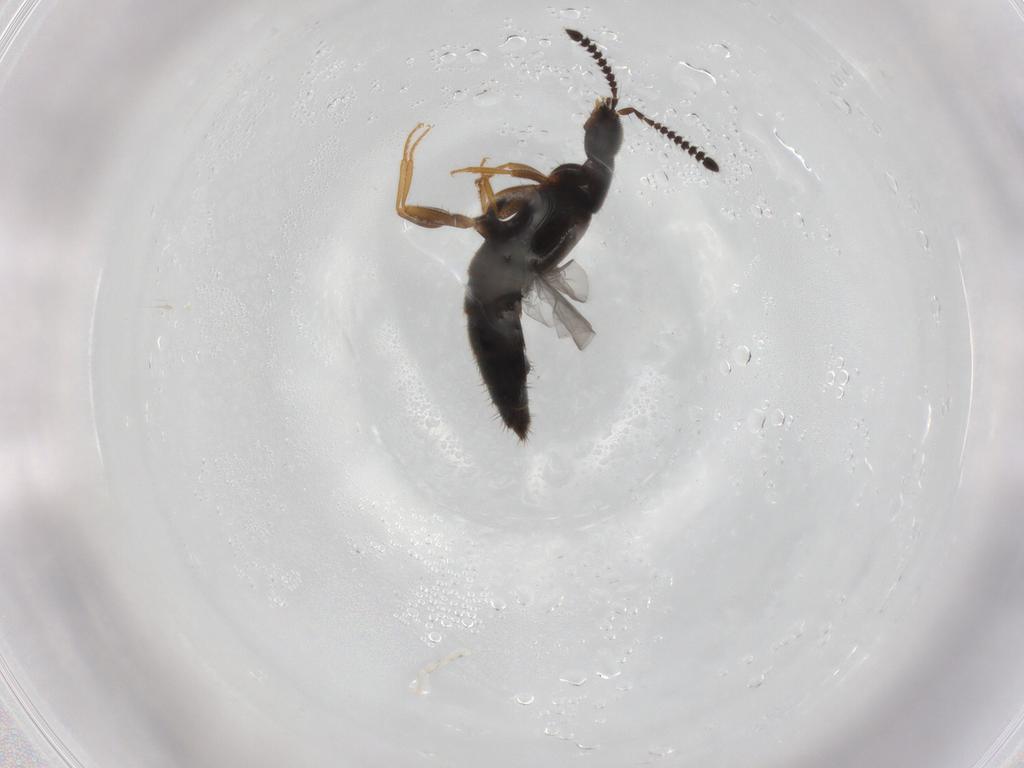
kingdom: Animalia
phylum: Arthropoda
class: Insecta
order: Coleoptera
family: Staphylinidae
